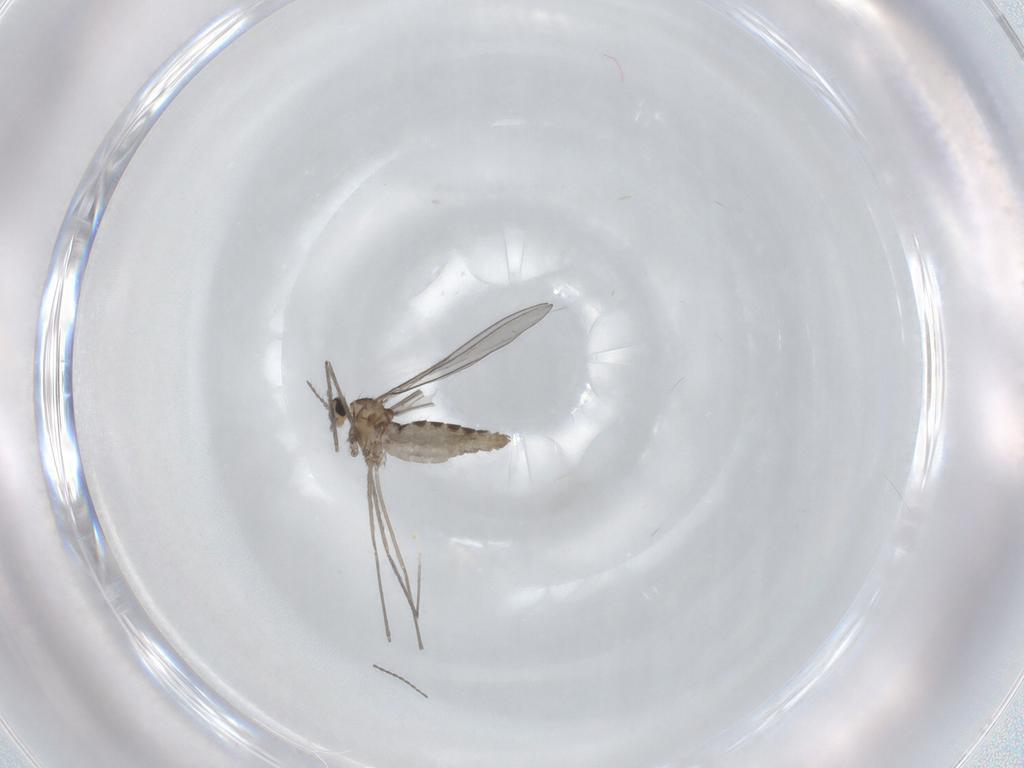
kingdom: Animalia
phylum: Arthropoda
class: Insecta
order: Diptera
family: Cecidomyiidae
